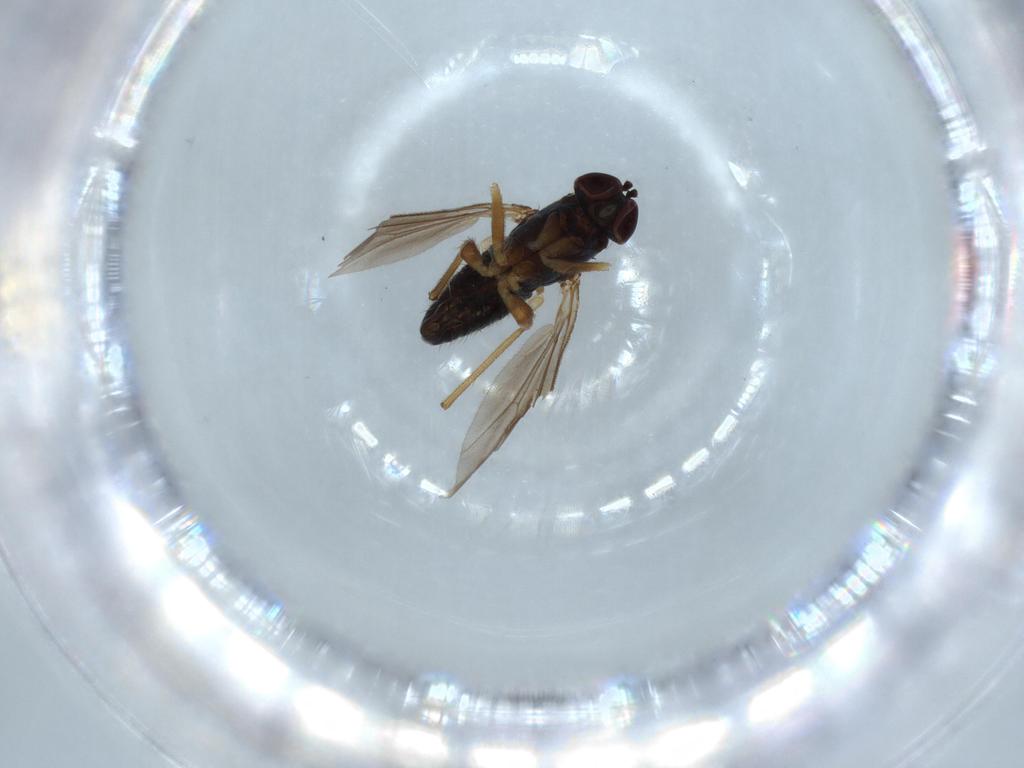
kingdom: Animalia
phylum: Arthropoda
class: Insecta
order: Diptera
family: Dolichopodidae
